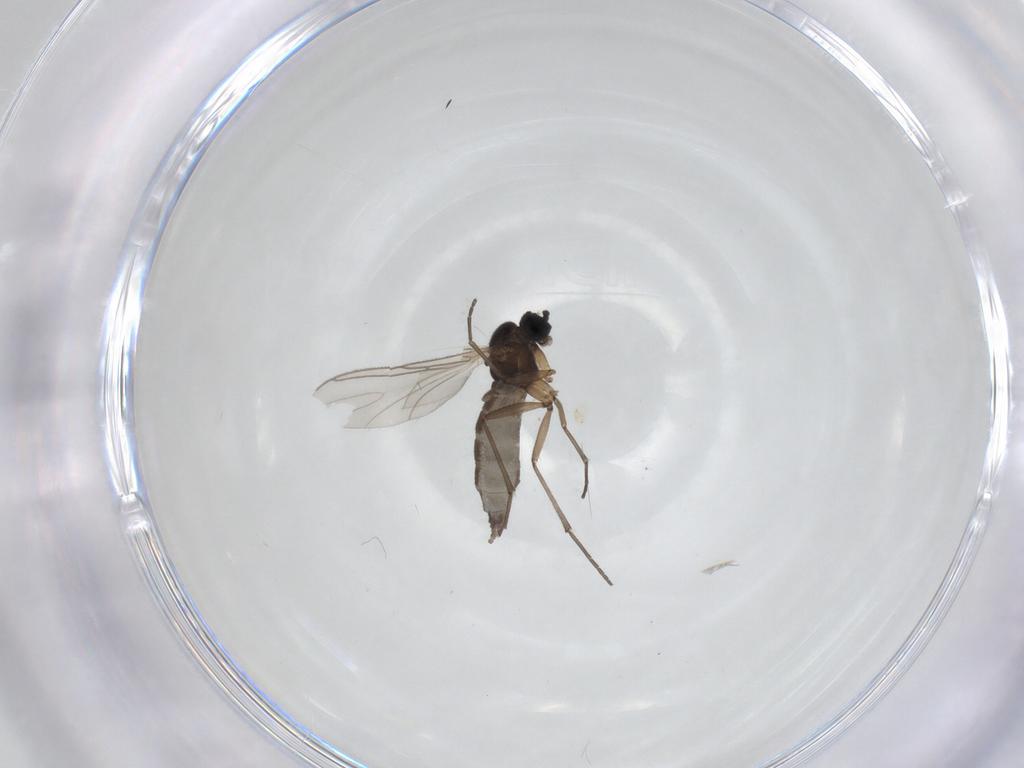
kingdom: Animalia
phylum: Arthropoda
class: Insecta
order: Diptera
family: Sciaridae
